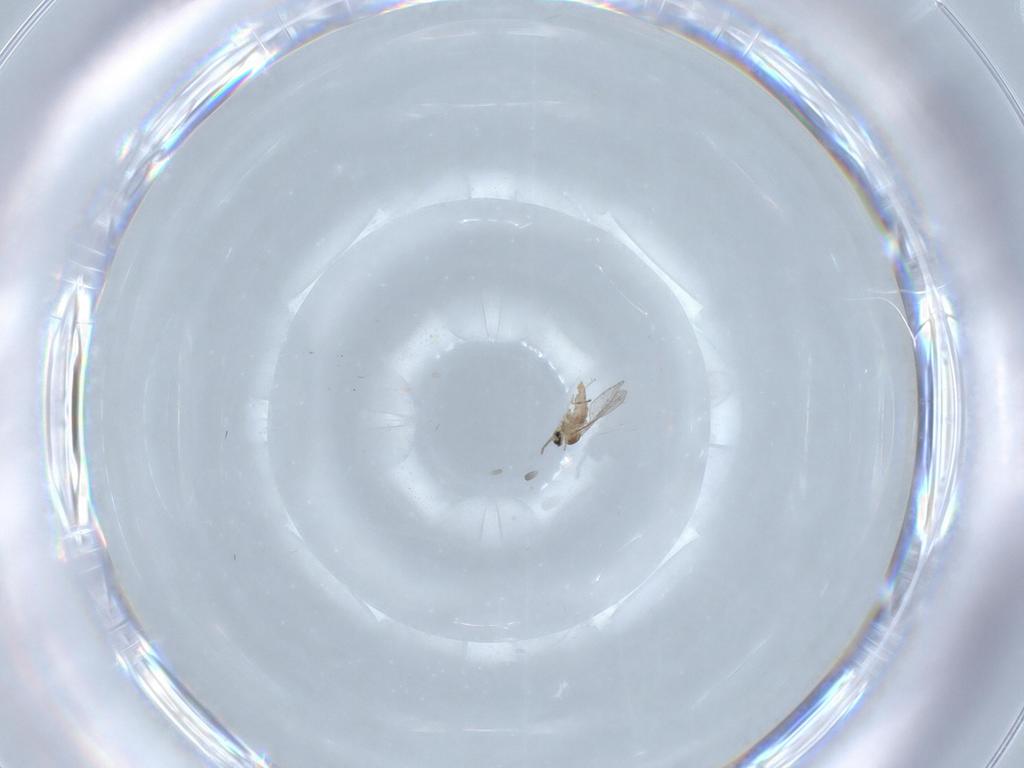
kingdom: Animalia
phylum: Arthropoda
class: Insecta
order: Diptera
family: Cecidomyiidae
